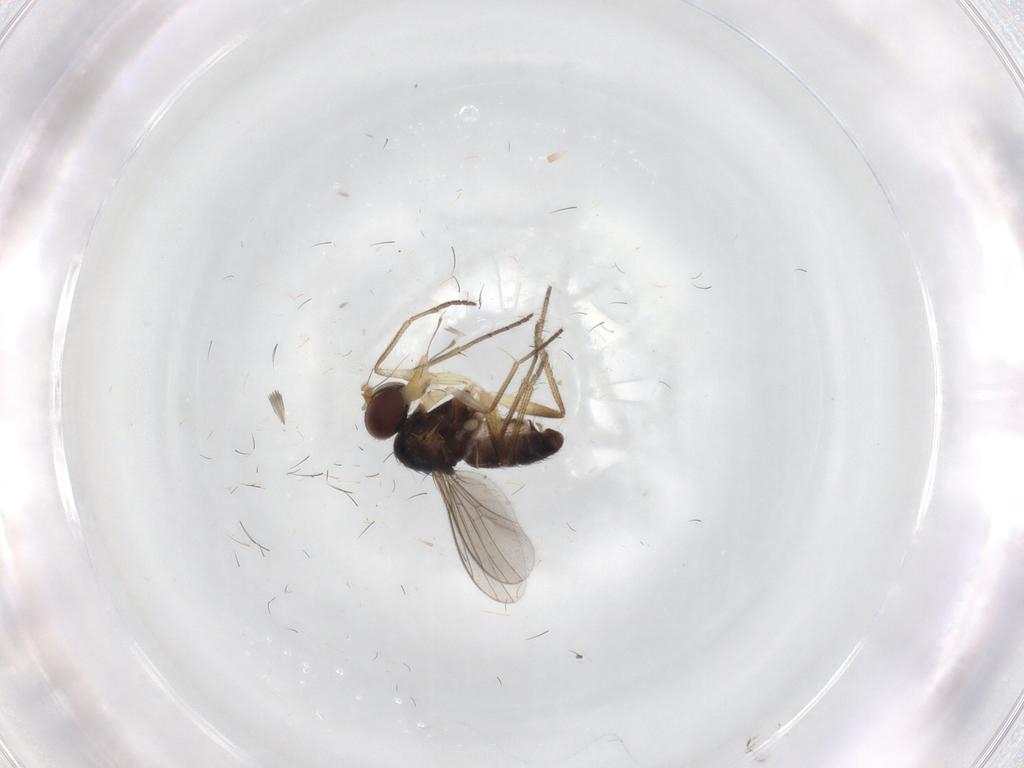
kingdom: Animalia
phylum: Arthropoda
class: Insecta
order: Diptera
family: Dolichopodidae
